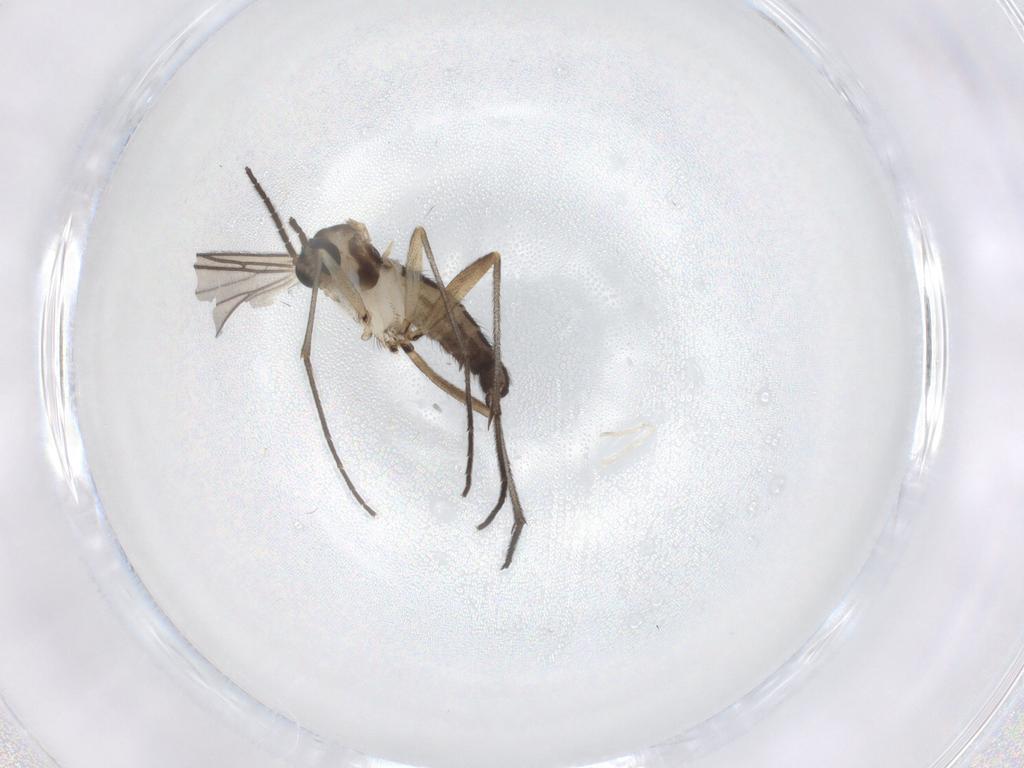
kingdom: Animalia
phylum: Arthropoda
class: Insecta
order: Diptera
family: Sciaridae
